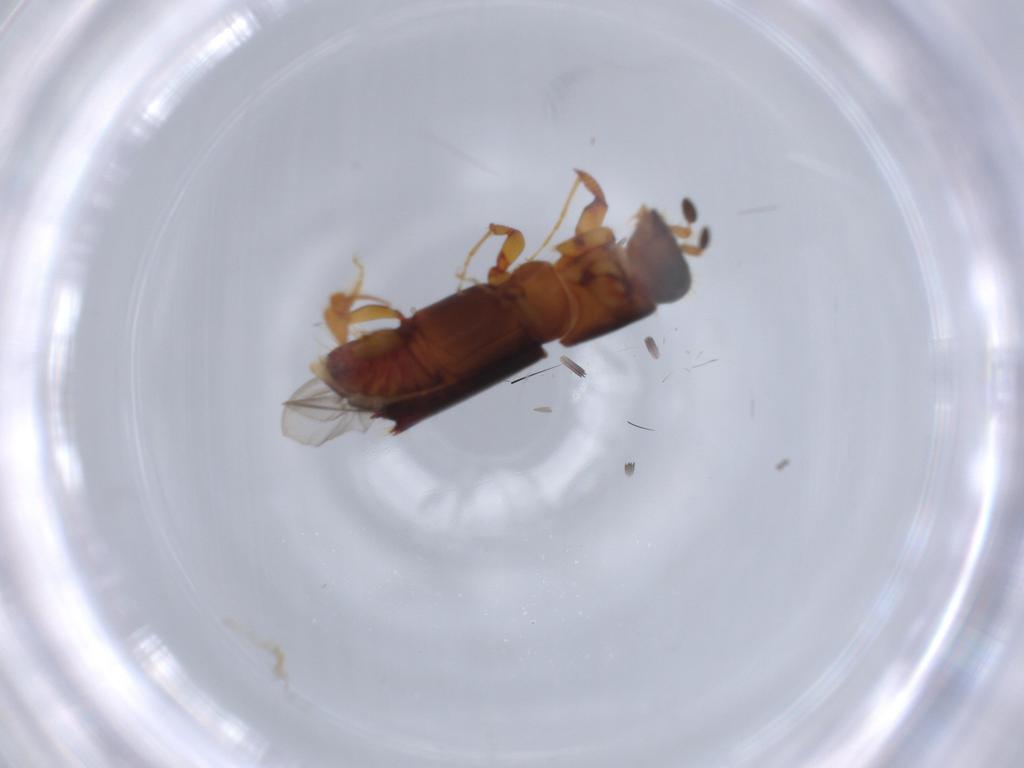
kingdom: Animalia
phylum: Arthropoda
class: Insecta
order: Coleoptera
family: Curculionidae
